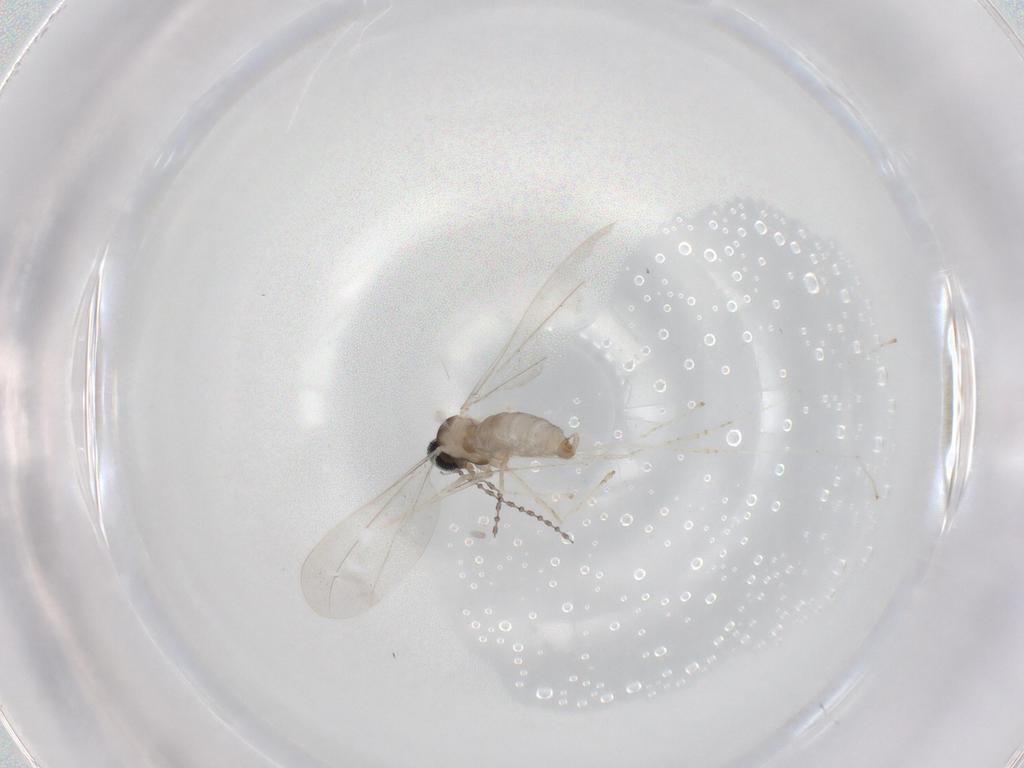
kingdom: Animalia
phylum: Arthropoda
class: Insecta
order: Diptera
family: Cecidomyiidae
